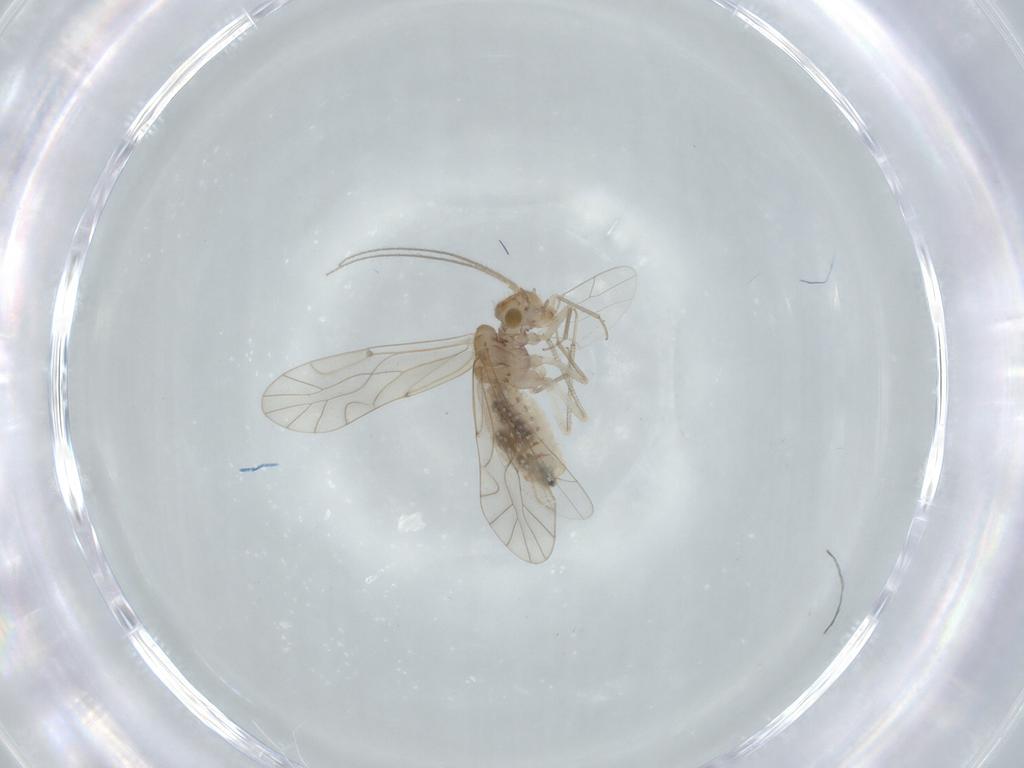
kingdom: Animalia
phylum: Arthropoda
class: Insecta
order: Psocodea
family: Lachesillidae
